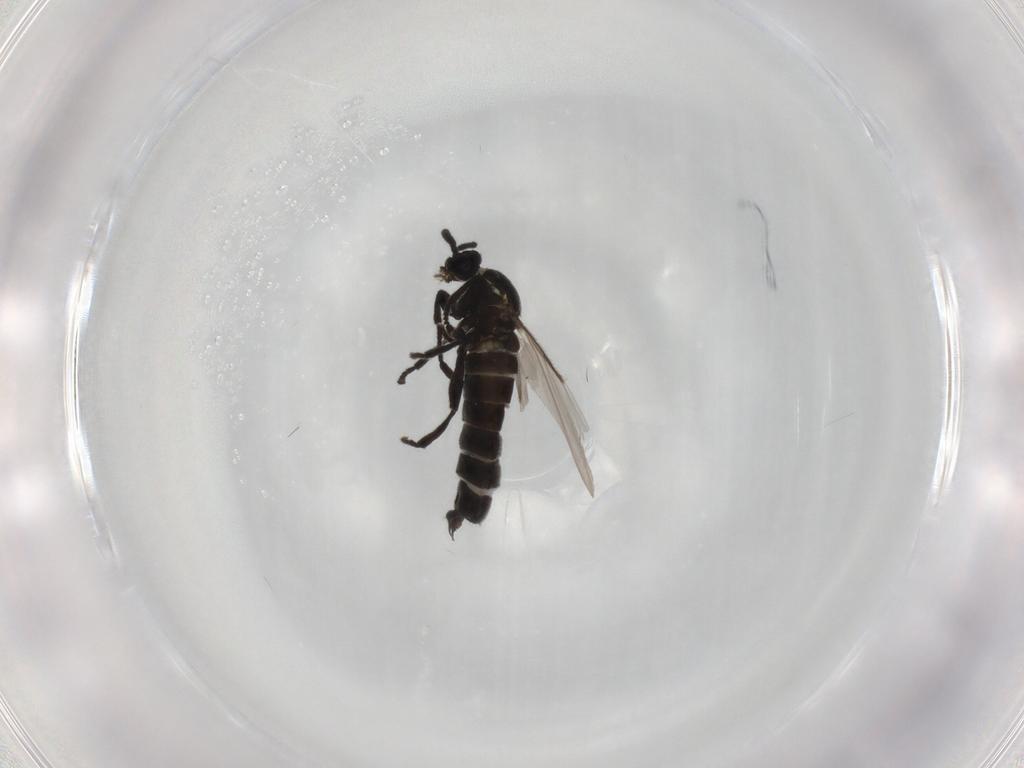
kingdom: Animalia
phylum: Arthropoda
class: Insecta
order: Diptera
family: Scatopsidae
